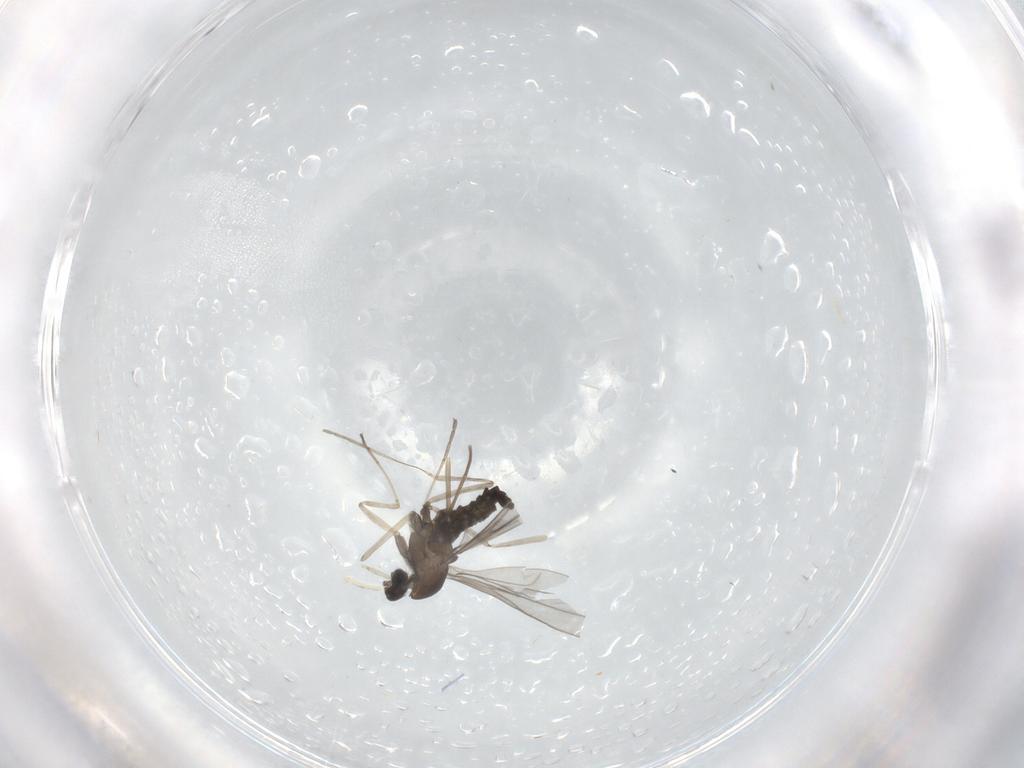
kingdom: Animalia
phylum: Arthropoda
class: Insecta
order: Diptera
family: Cecidomyiidae
